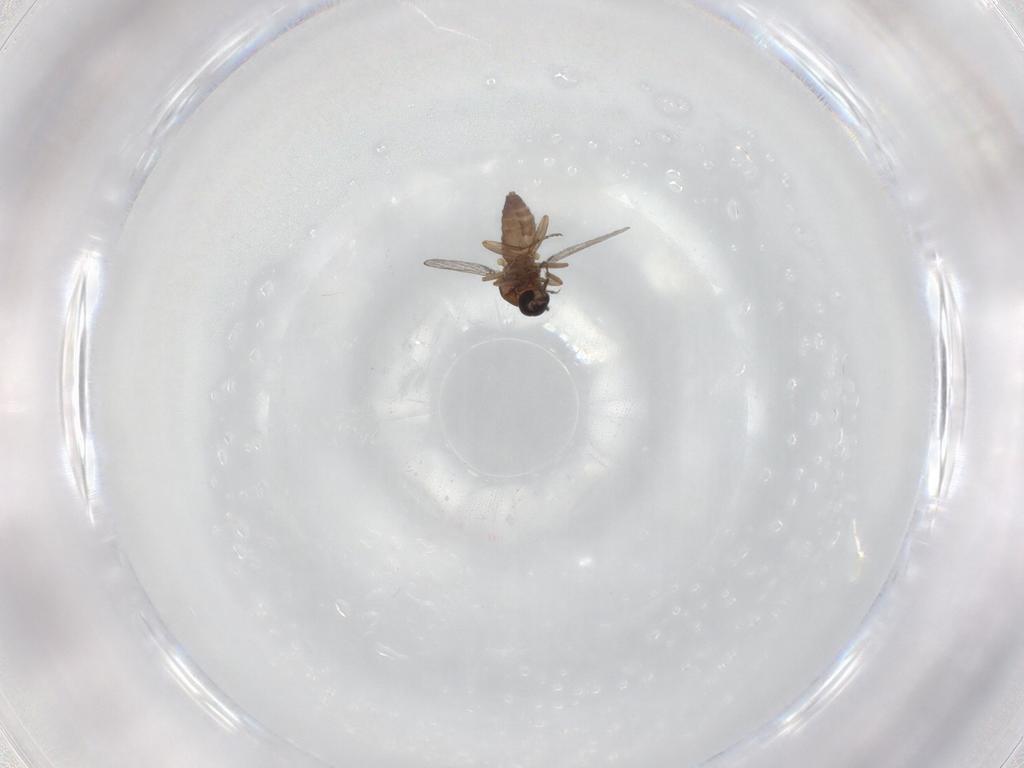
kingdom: Animalia
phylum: Arthropoda
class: Insecta
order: Diptera
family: Ceratopogonidae
